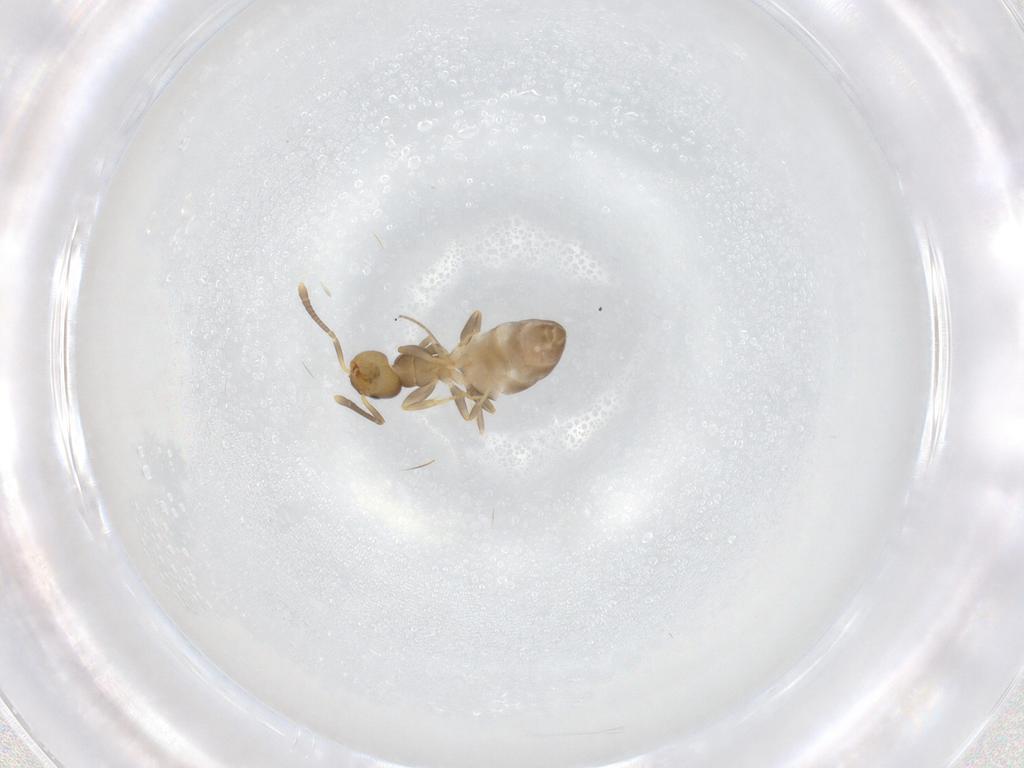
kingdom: Animalia
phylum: Arthropoda
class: Insecta
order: Hymenoptera
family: Formicidae
